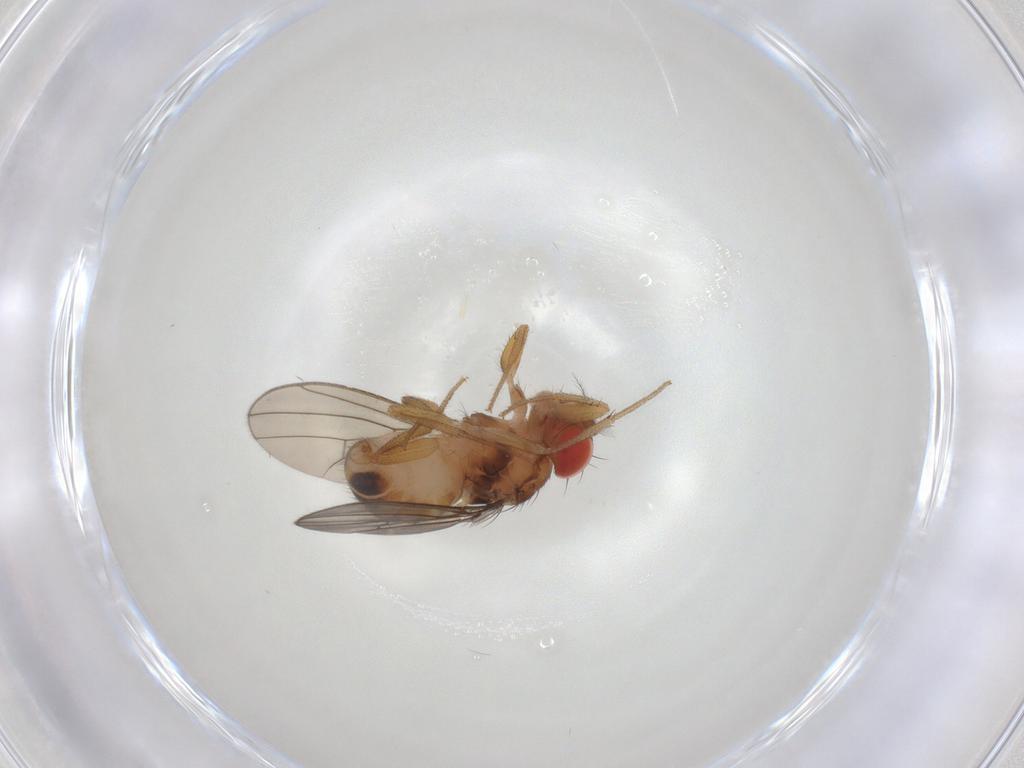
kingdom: Animalia
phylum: Arthropoda
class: Insecta
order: Diptera
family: Drosophilidae
